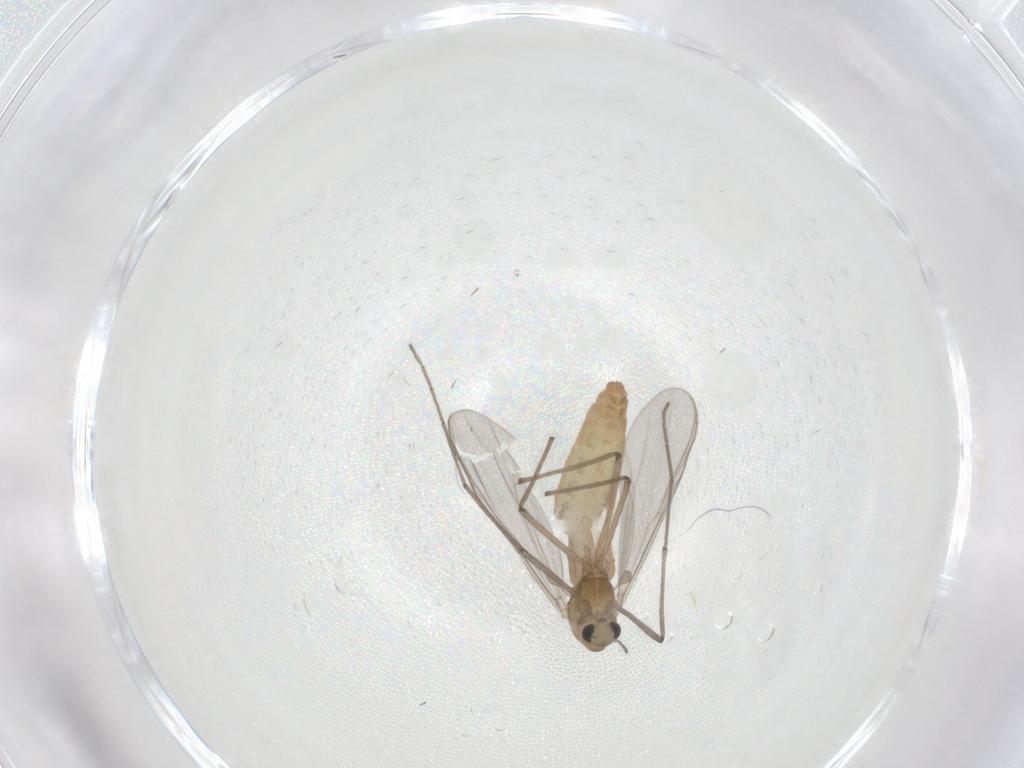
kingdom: Animalia
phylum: Arthropoda
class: Insecta
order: Diptera
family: Chironomidae
